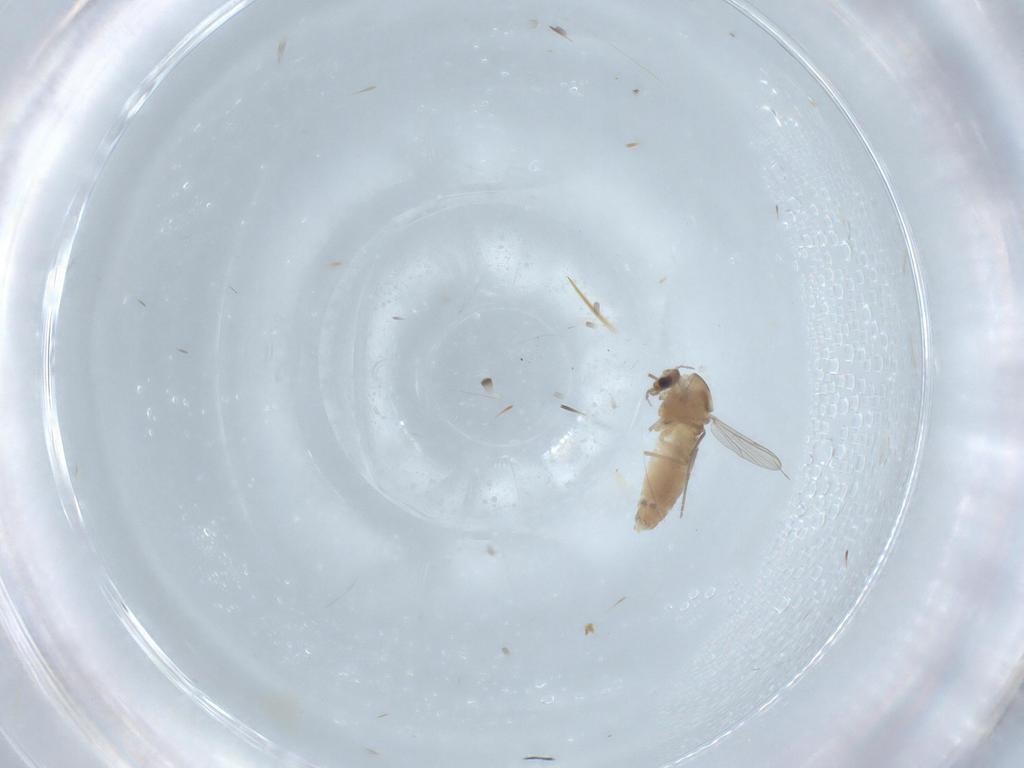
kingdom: Animalia
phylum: Arthropoda
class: Insecta
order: Diptera
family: Chironomidae
